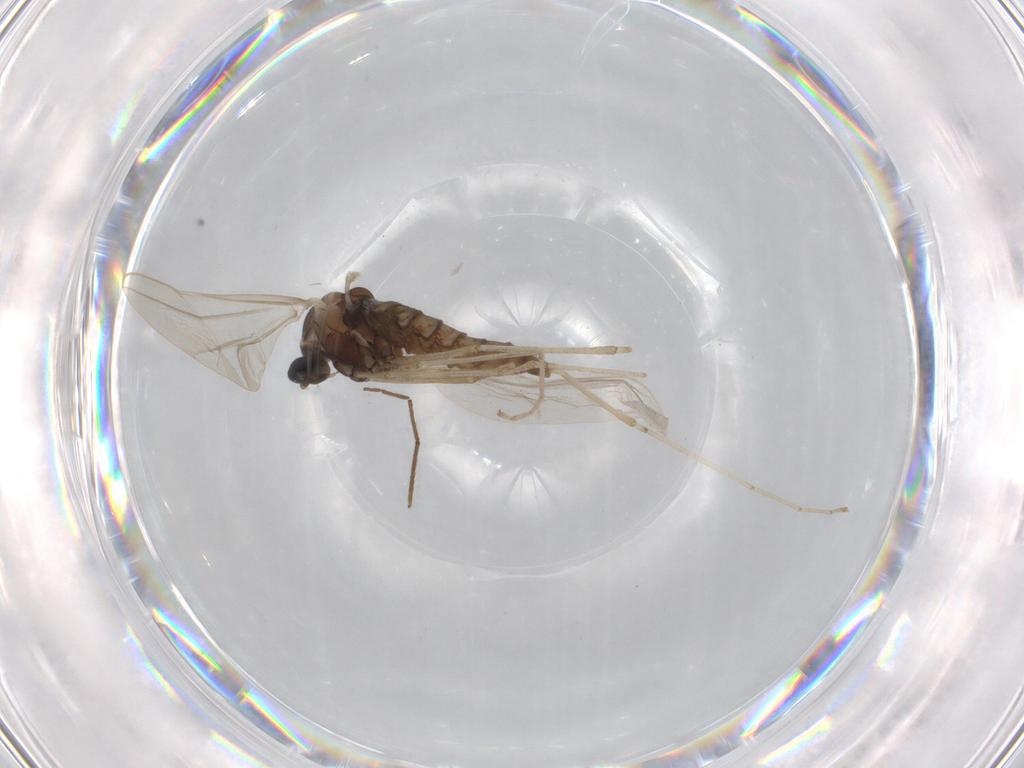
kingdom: Animalia
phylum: Arthropoda
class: Insecta
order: Diptera
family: Cecidomyiidae
